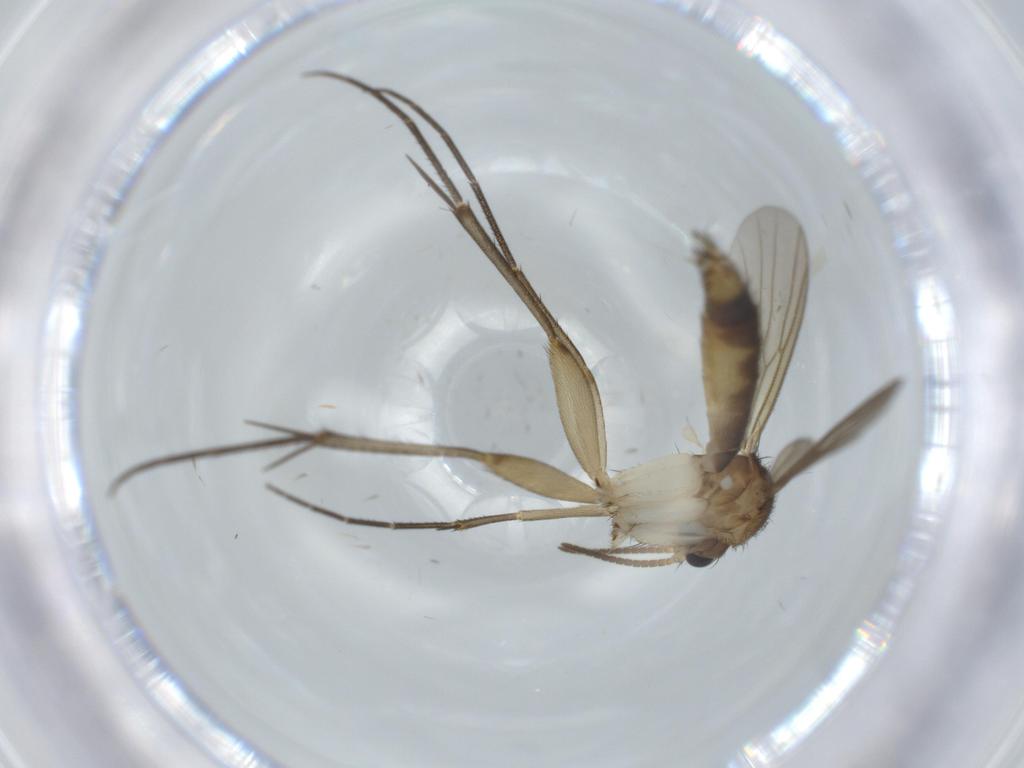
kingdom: Animalia
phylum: Arthropoda
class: Insecta
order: Diptera
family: Mycetophilidae
